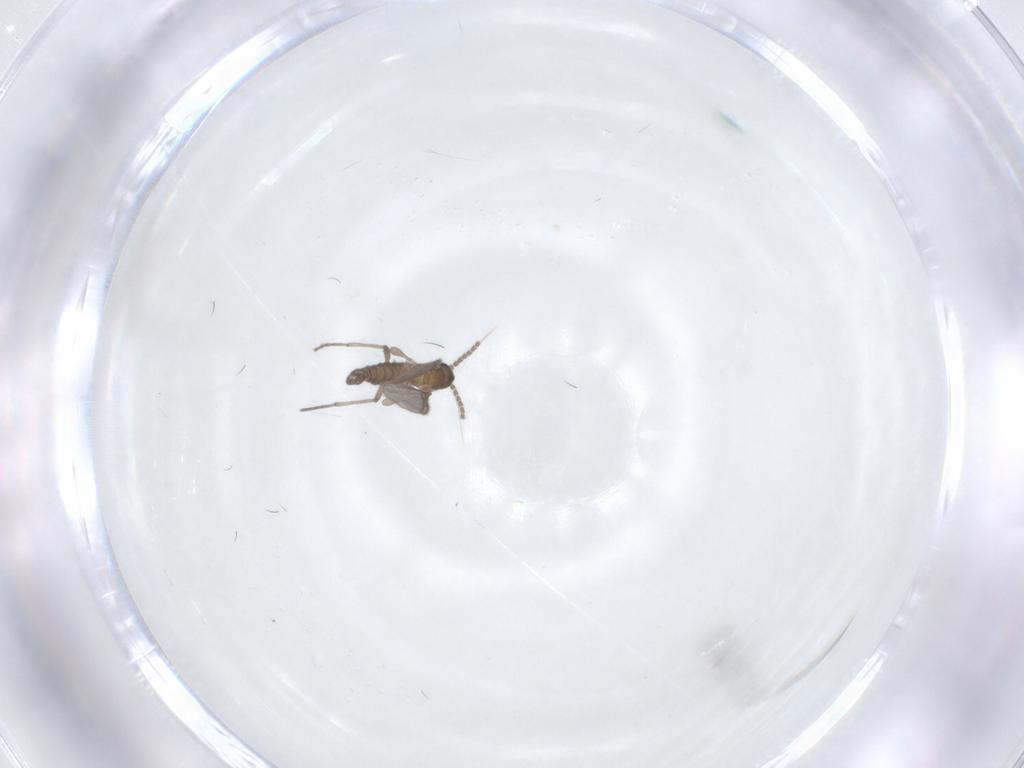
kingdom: Animalia
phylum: Arthropoda
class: Insecta
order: Diptera
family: Sciaridae
